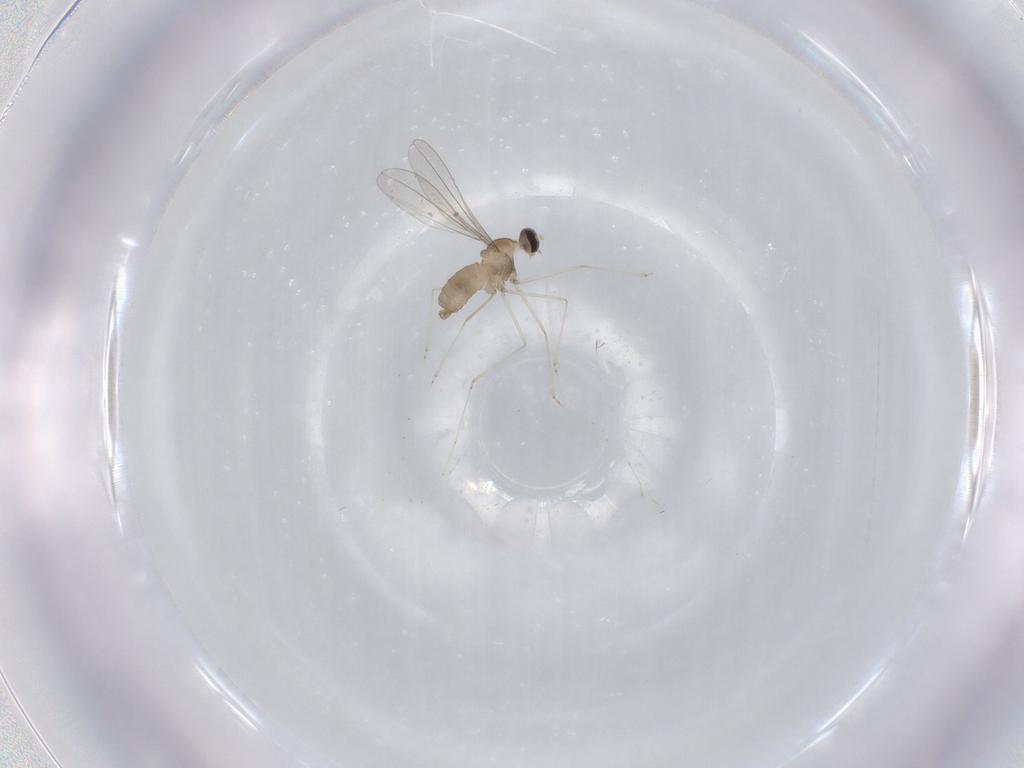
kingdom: Animalia
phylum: Arthropoda
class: Insecta
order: Diptera
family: Cecidomyiidae
